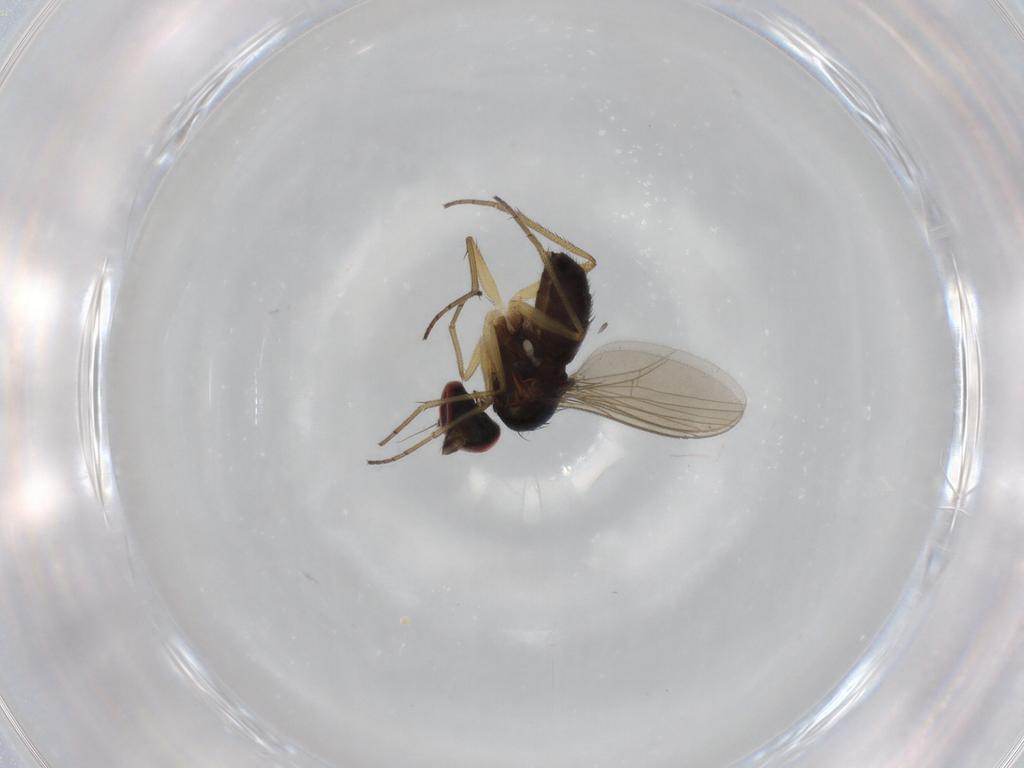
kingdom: Animalia
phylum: Arthropoda
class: Insecta
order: Diptera
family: Dolichopodidae
